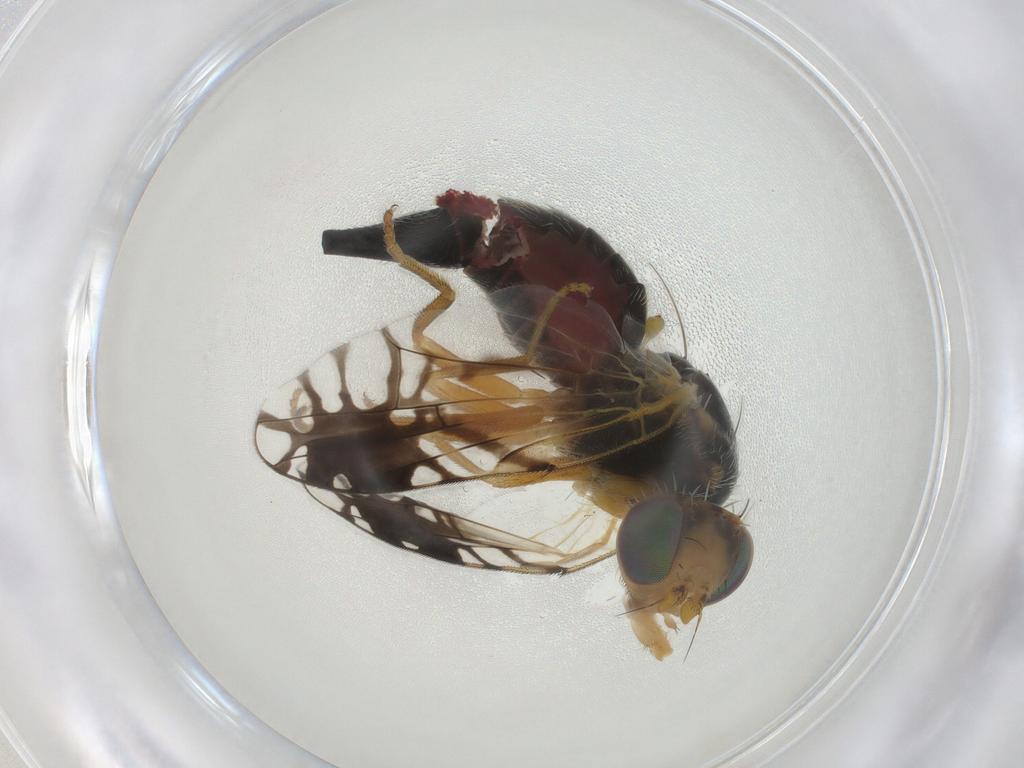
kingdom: Animalia
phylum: Arthropoda
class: Insecta
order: Diptera
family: Tephritidae
